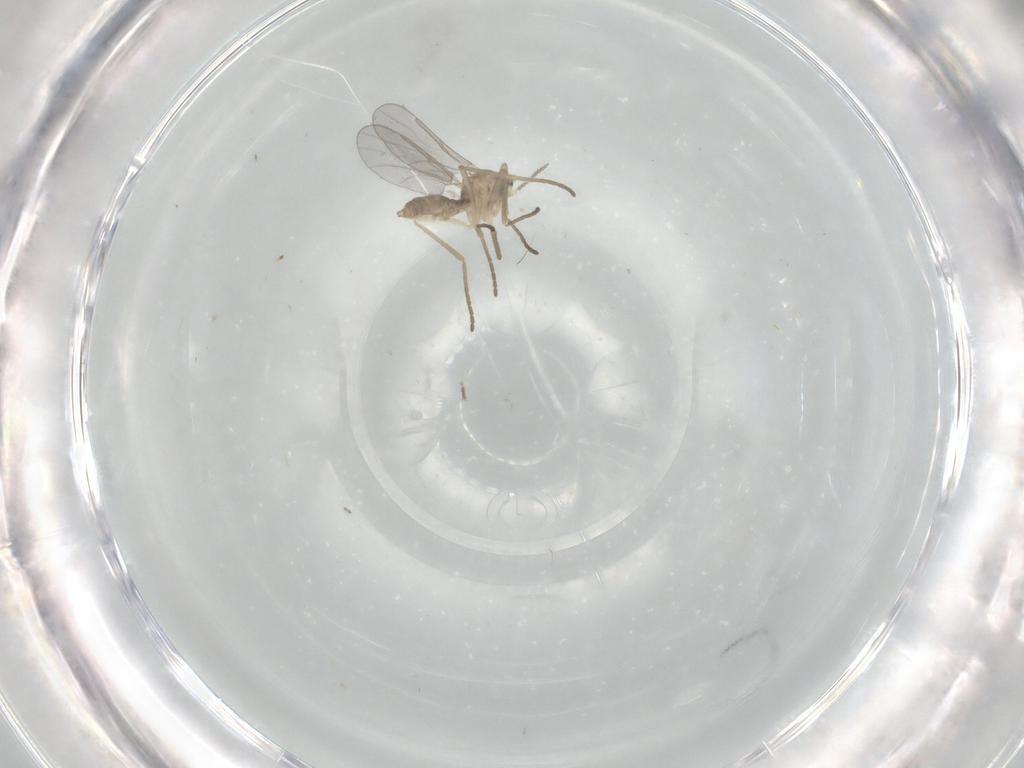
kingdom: Animalia
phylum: Arthropoda
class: Insecta
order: Diptera
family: Chironomidae
